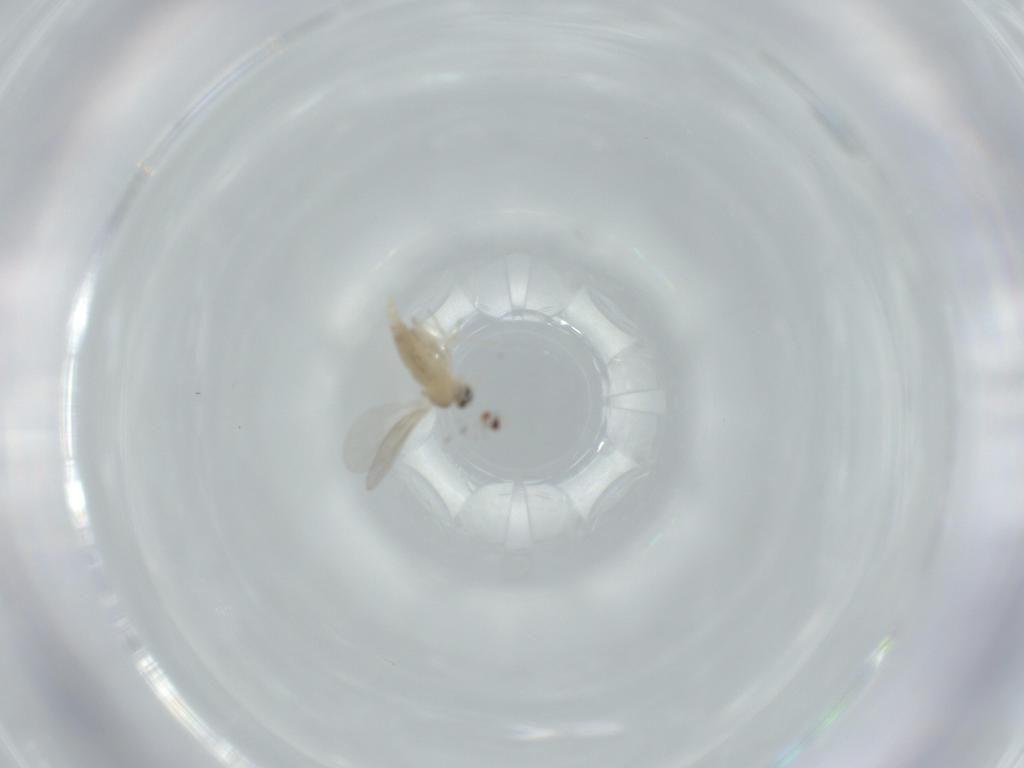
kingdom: Animalia
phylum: Arthropoda
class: Insecta
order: Diptera
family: Cecidomyiidae
